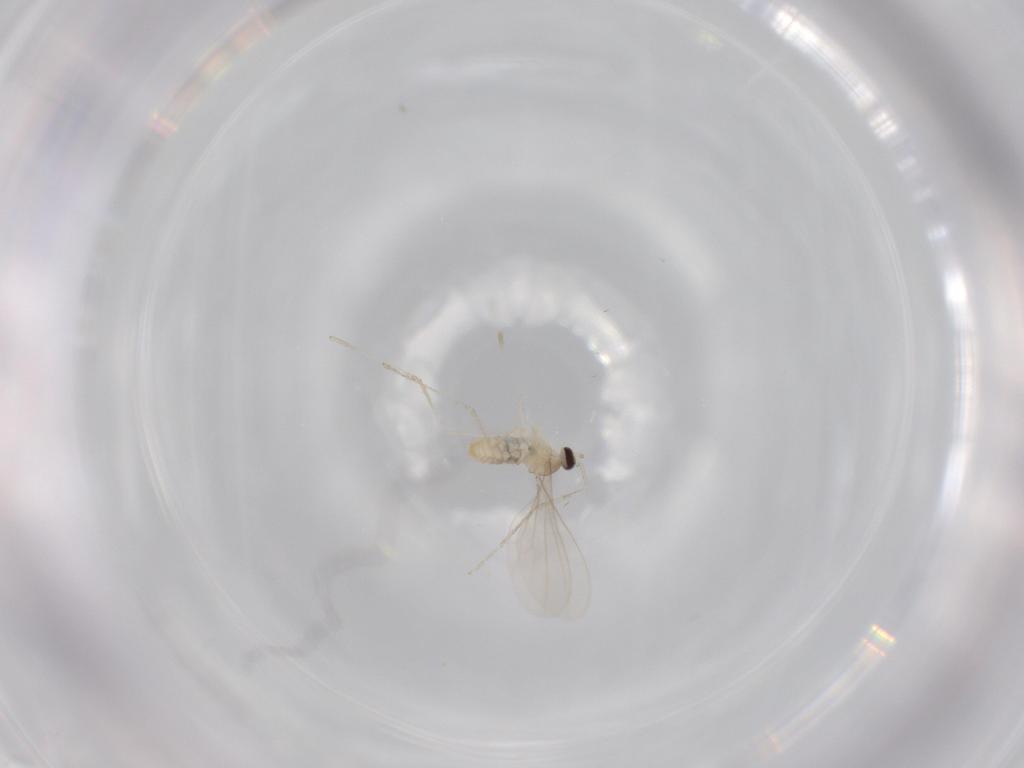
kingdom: Animalia
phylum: Arthropoda
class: Insecta
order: Diptera
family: Cecidomyiidae
